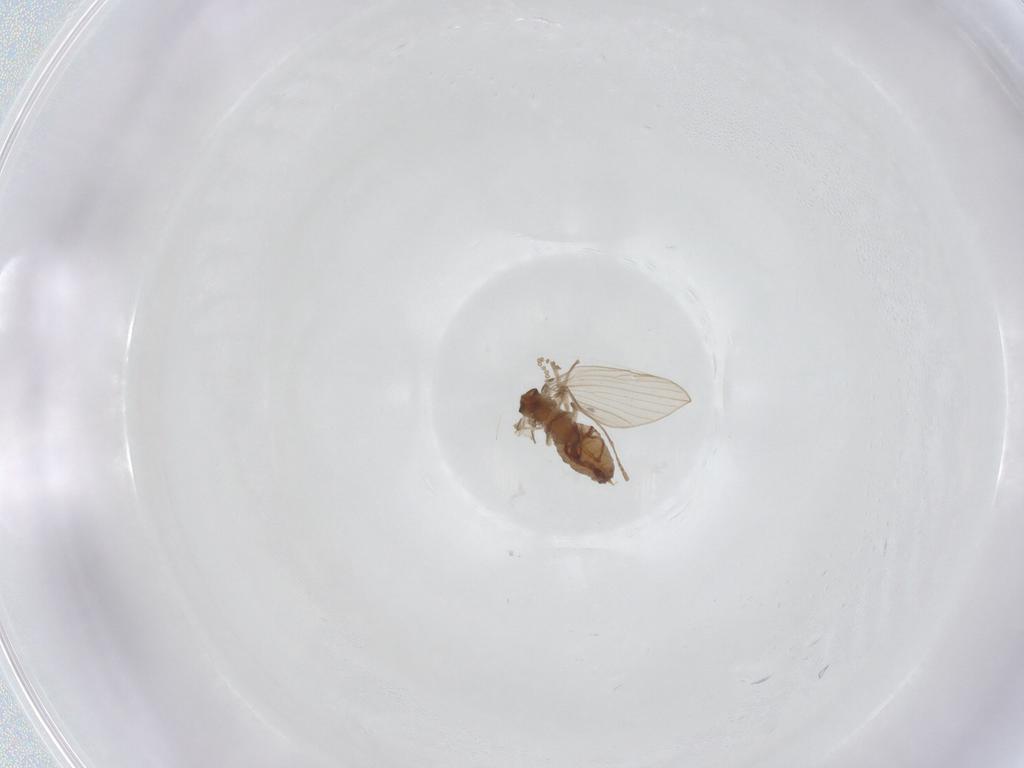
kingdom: Animalia
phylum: Arthropoda
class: Insecta
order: Diptera
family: Psychodidae
